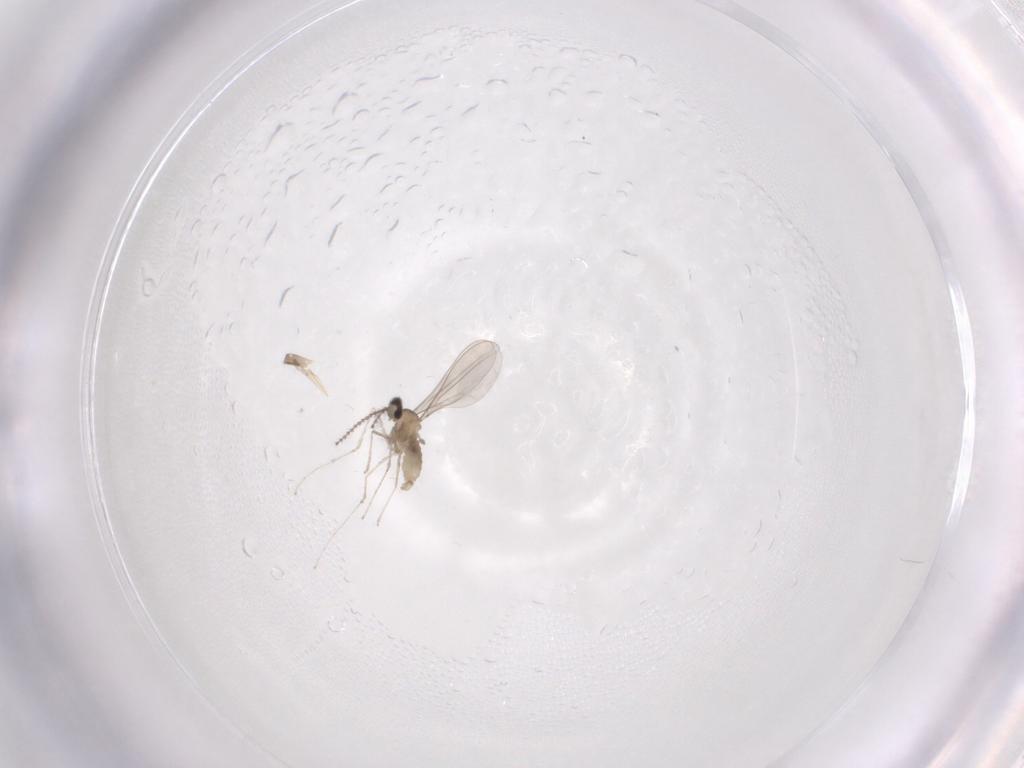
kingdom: Animalia
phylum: Arthropoda
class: Insecta
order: Diptera
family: Cecidomyiidae
